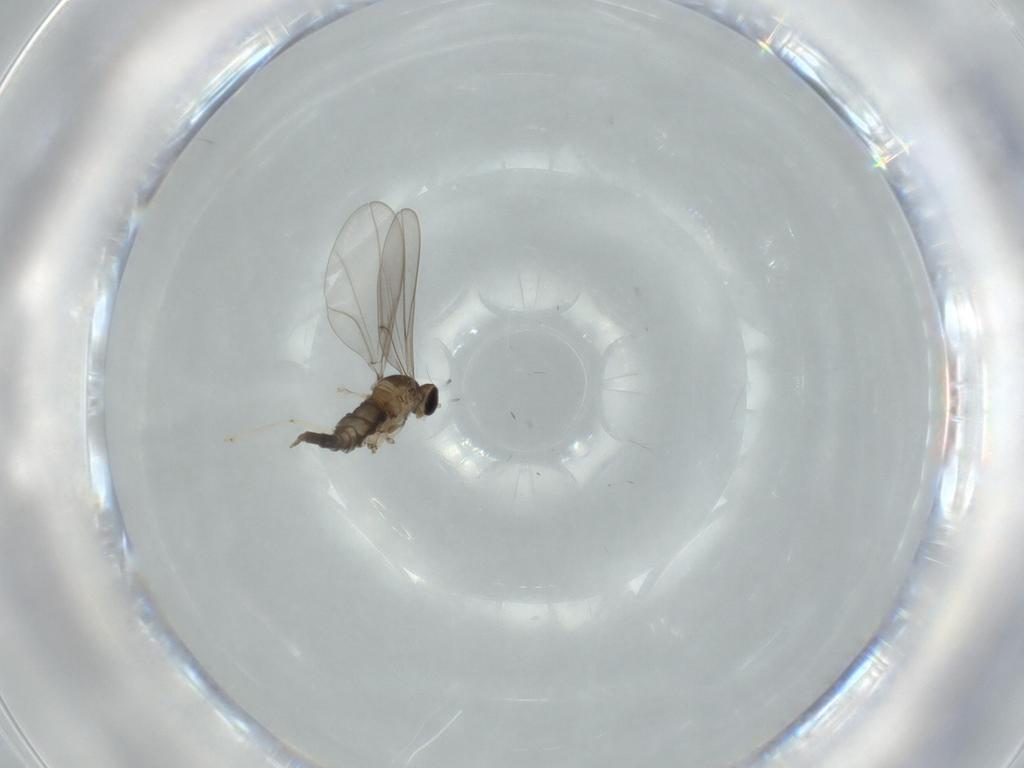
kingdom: Animalia
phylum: Arthropoda
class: Insecta
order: Diptera
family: Cecidomyiidae
